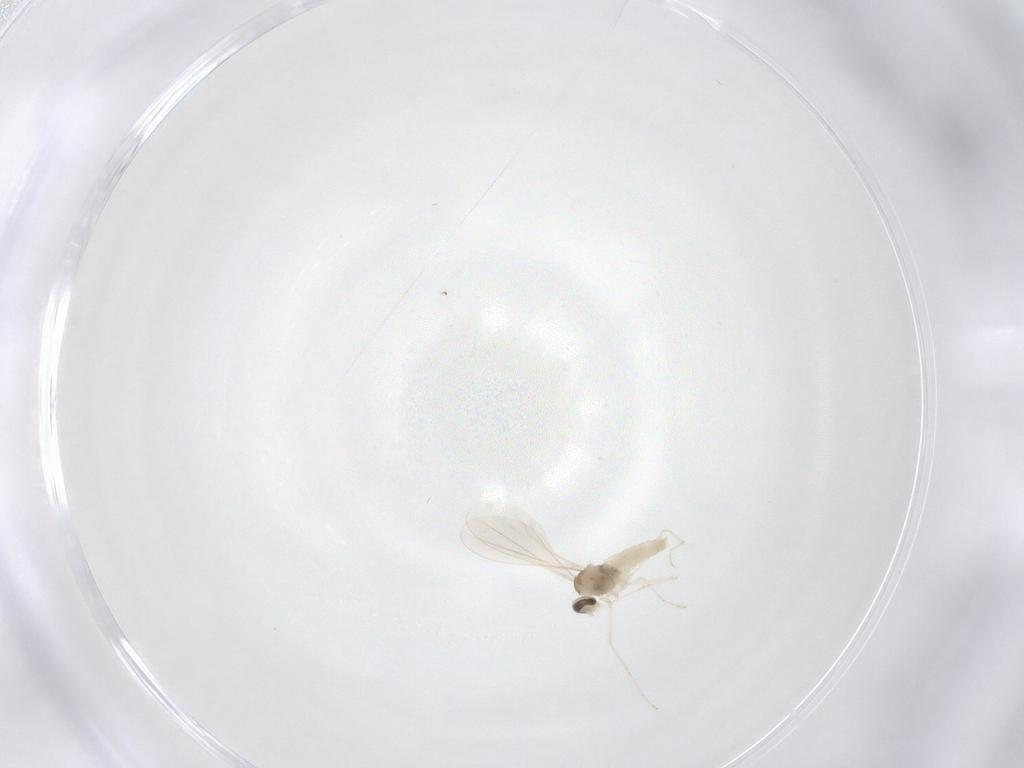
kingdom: Animalia
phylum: Arthropoda
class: Insecta
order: Diptera
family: Cecidomyiidae
